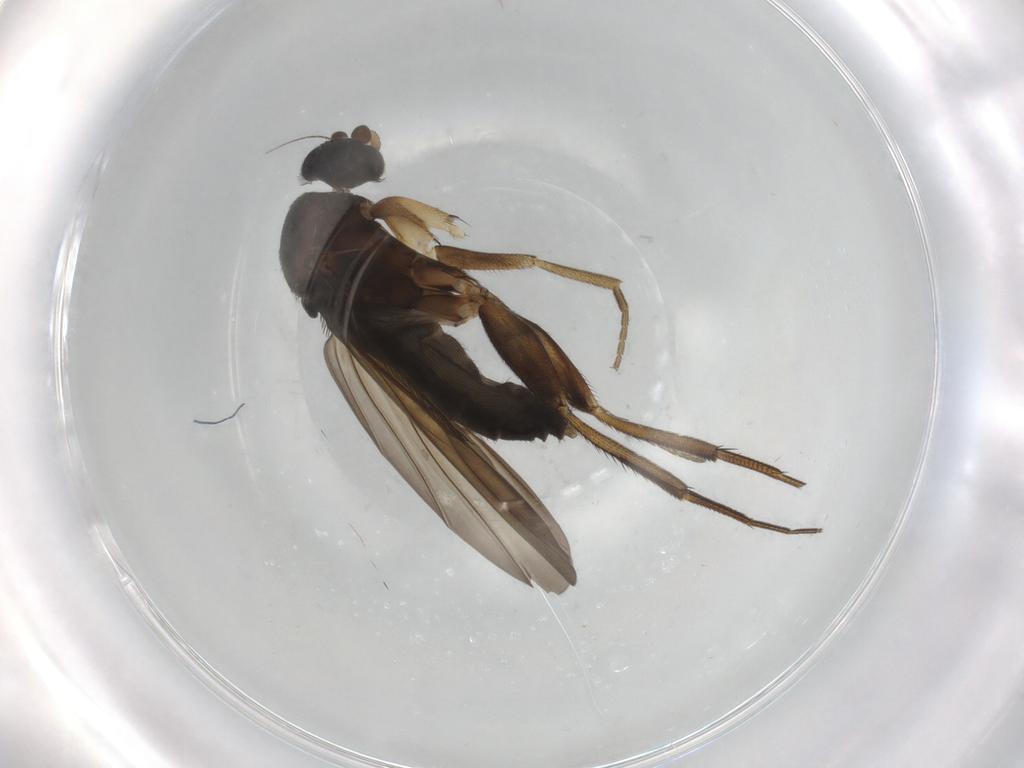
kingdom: Animalia
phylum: Arthropoda
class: Insecta
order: Diptera
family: Phoridae
